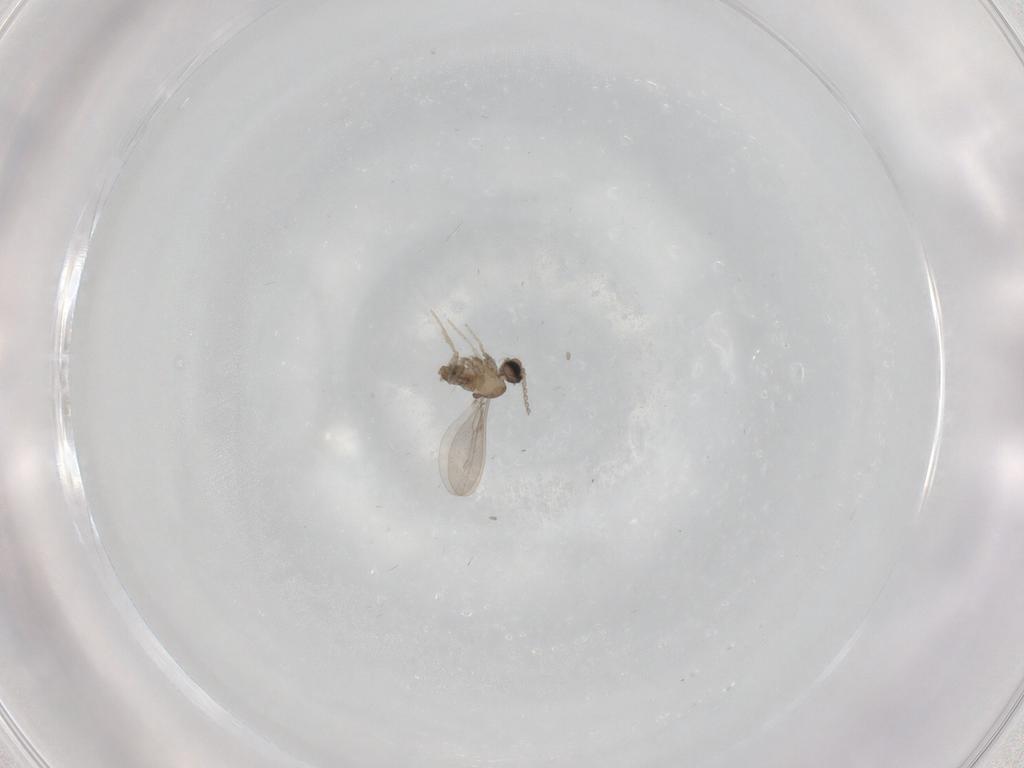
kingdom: Animalia
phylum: Arthropoda
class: Insecta
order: Diptera
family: Cecidomyiidae
